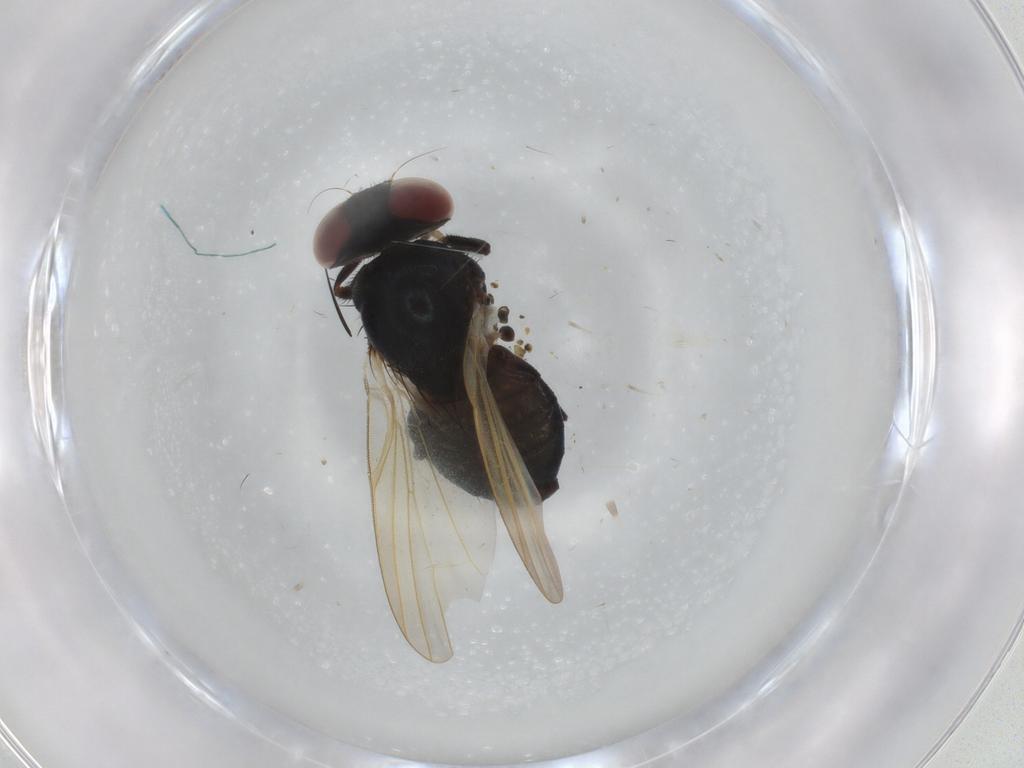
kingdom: Animalia
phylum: Arthropoda
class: Insecta
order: Diptera
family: Lonchaeidae
